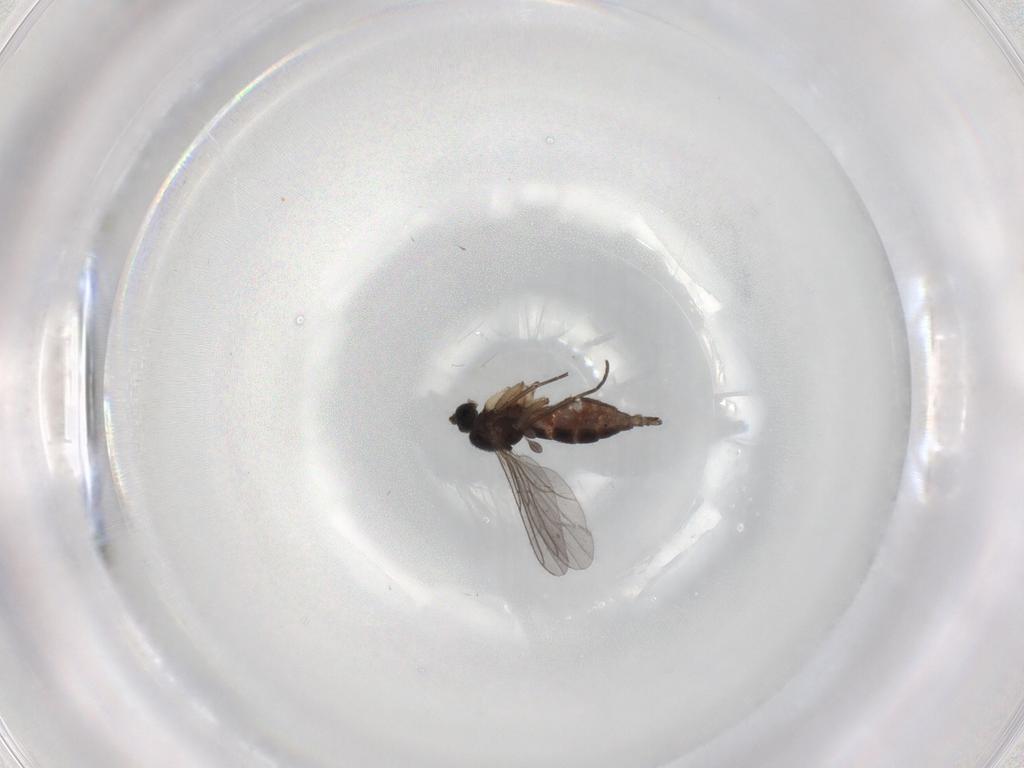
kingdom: Animalia
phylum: Arthropoda
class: Insecta
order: Diptera
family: Sciaridae
